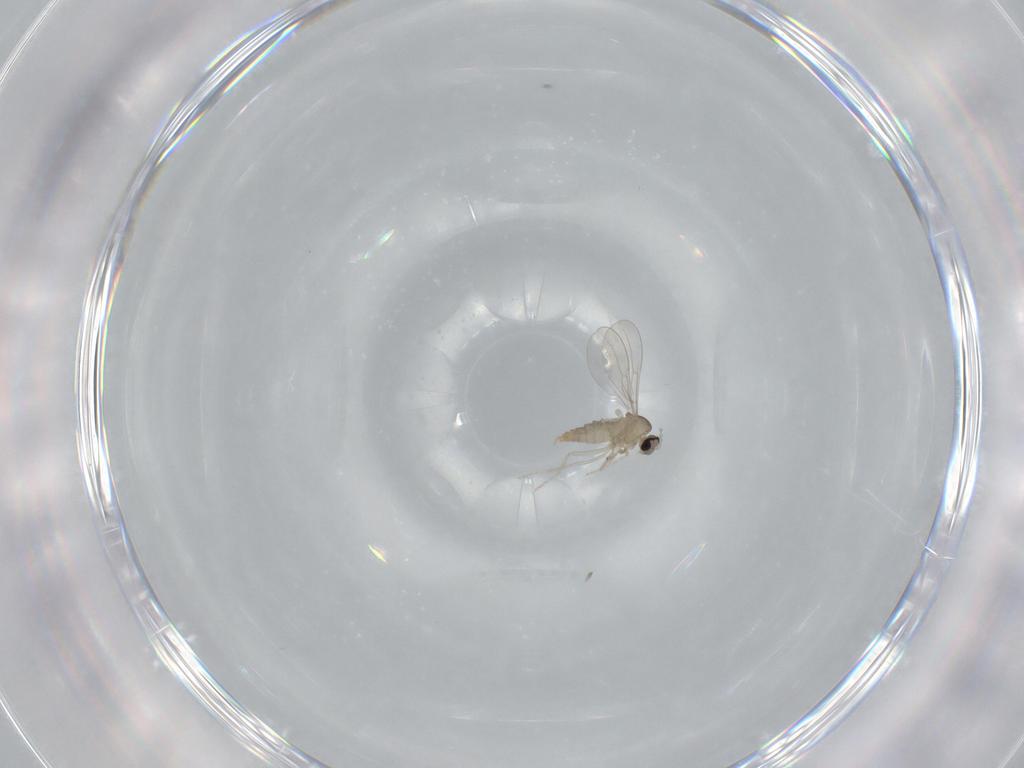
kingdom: Animalia
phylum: Arthropoda
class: Insecta
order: Diptera
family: Cecidomyiidae
